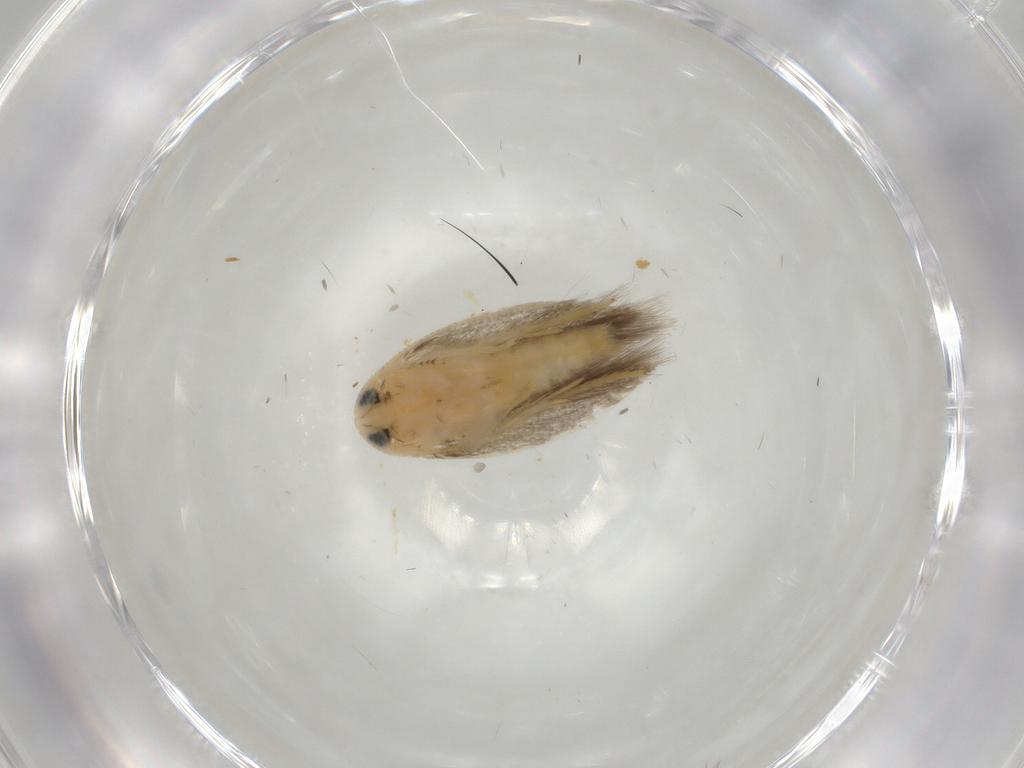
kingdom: Animalia
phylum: Arthropoda
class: Insecta
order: Lepidoptera
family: Opostegidae
